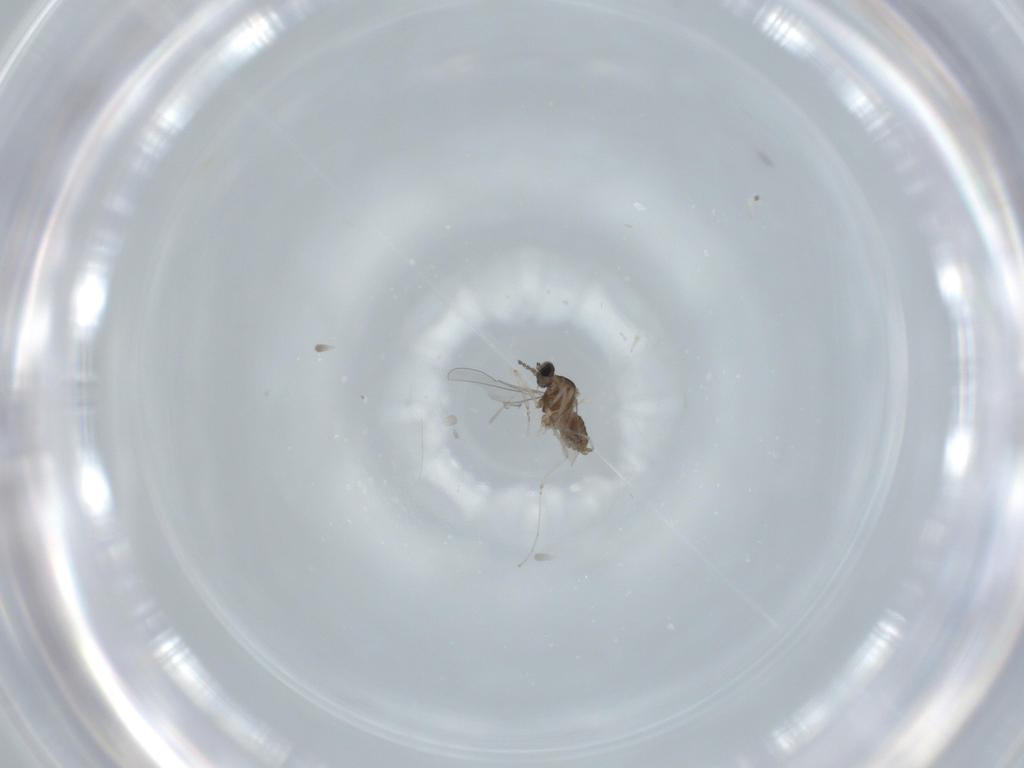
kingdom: Animalia
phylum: Arthropoda
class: Insecta
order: Diptera
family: Cecidomyiidae
